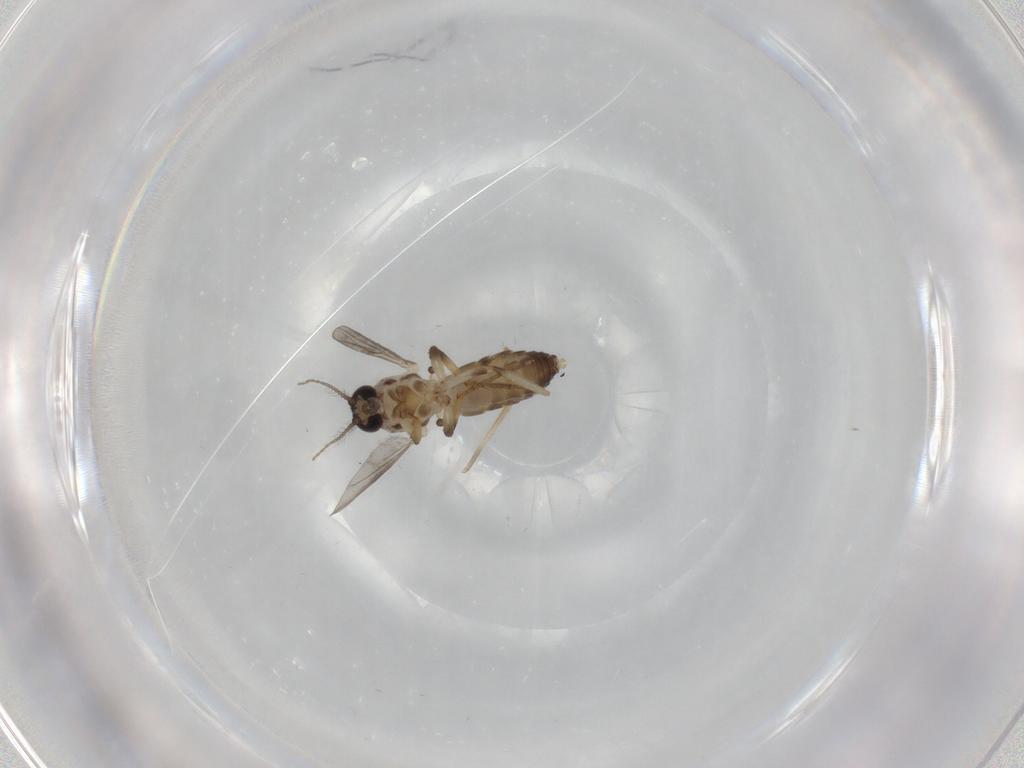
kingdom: Animalia
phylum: Arthropoda
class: Insecta
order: Diptera
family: Ceratopogonidae
